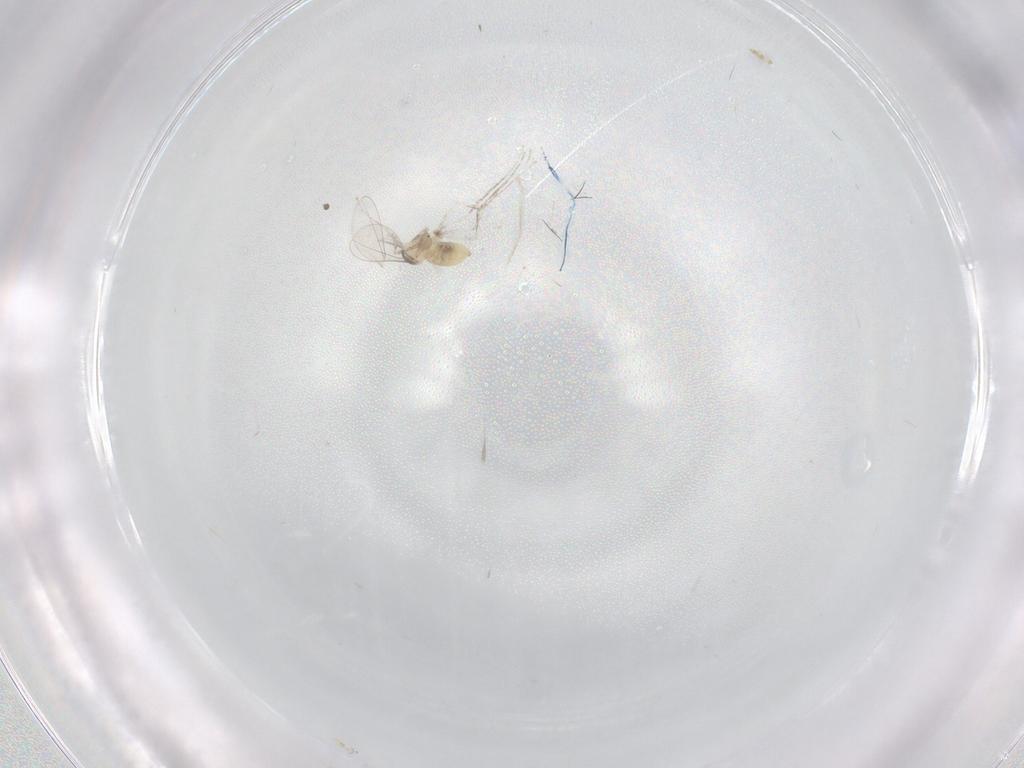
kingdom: Animalia
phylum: Arthropoda
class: Insecta
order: Diptera
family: Cecidomyiidae
